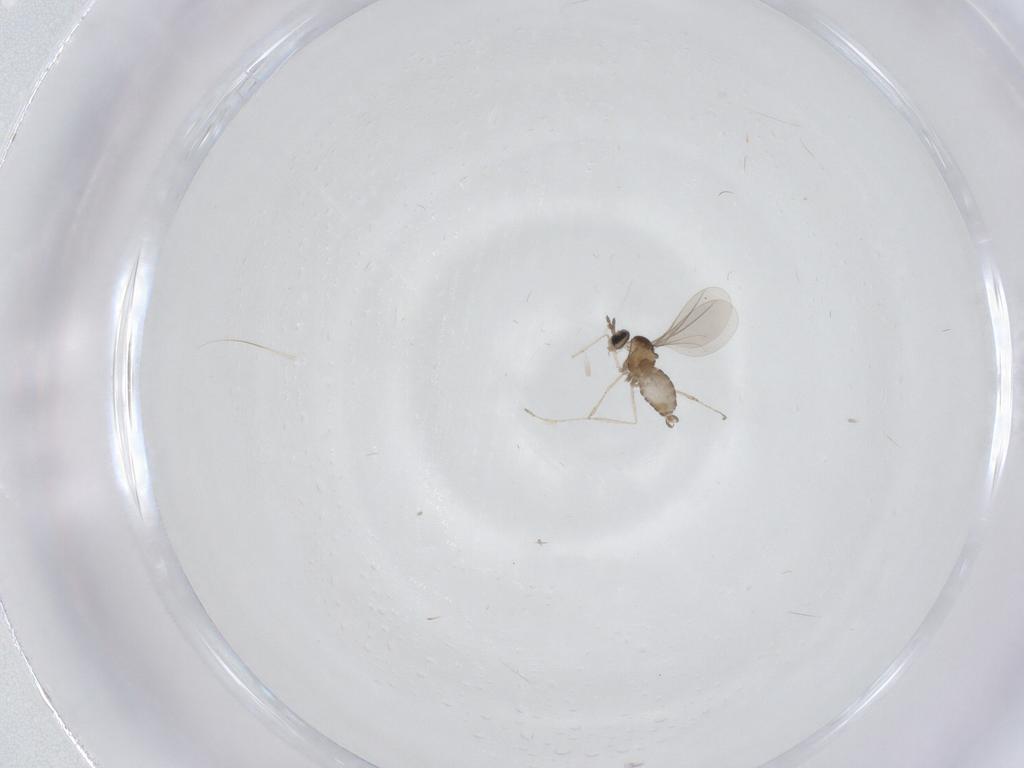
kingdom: Animalia
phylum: Arthropoda
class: Insecta
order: Diptera
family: Cecidomyiidae
